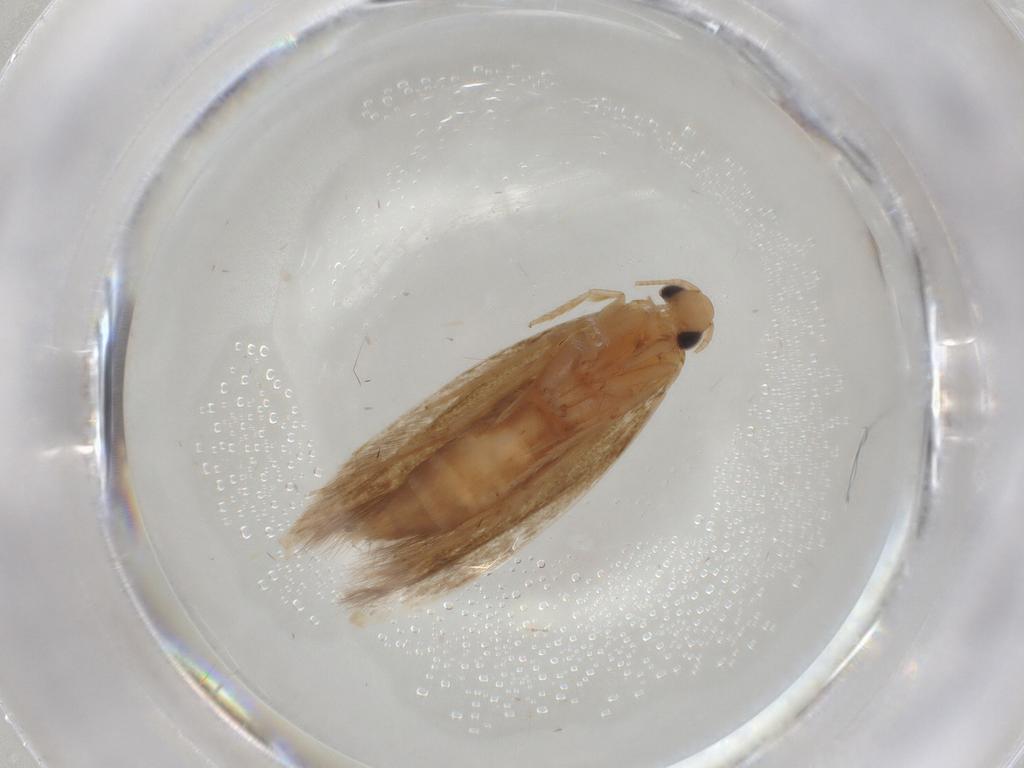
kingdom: Animalia
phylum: Arthropoda
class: Insecta
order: Lepidoptera
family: Tineidae
